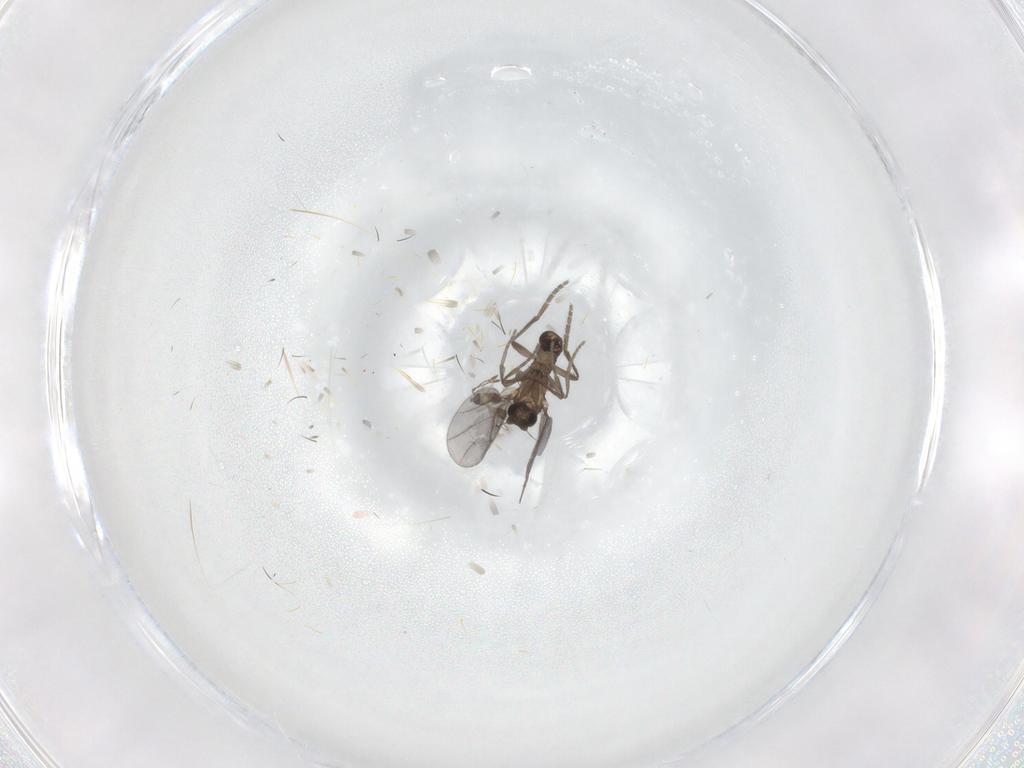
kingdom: Animalia
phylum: Arthropoda
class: Insecta
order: Diptera
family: Phoridae
